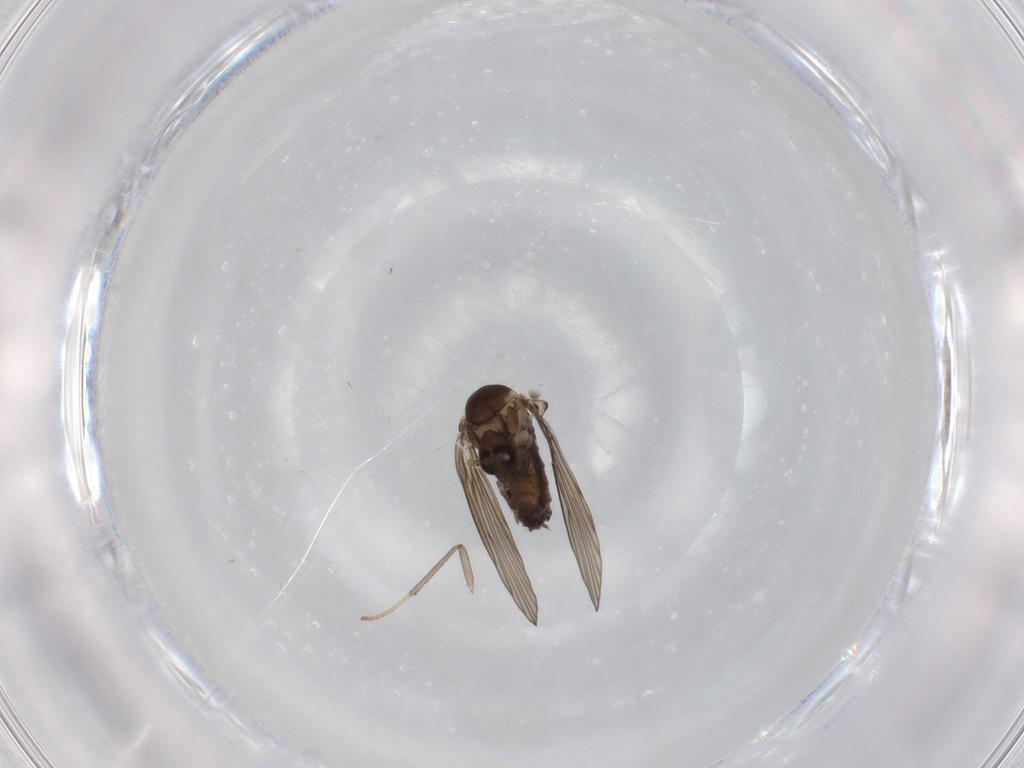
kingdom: Animalia
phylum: Arthropoda
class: Insecta
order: Diptera
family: Psychodidae
